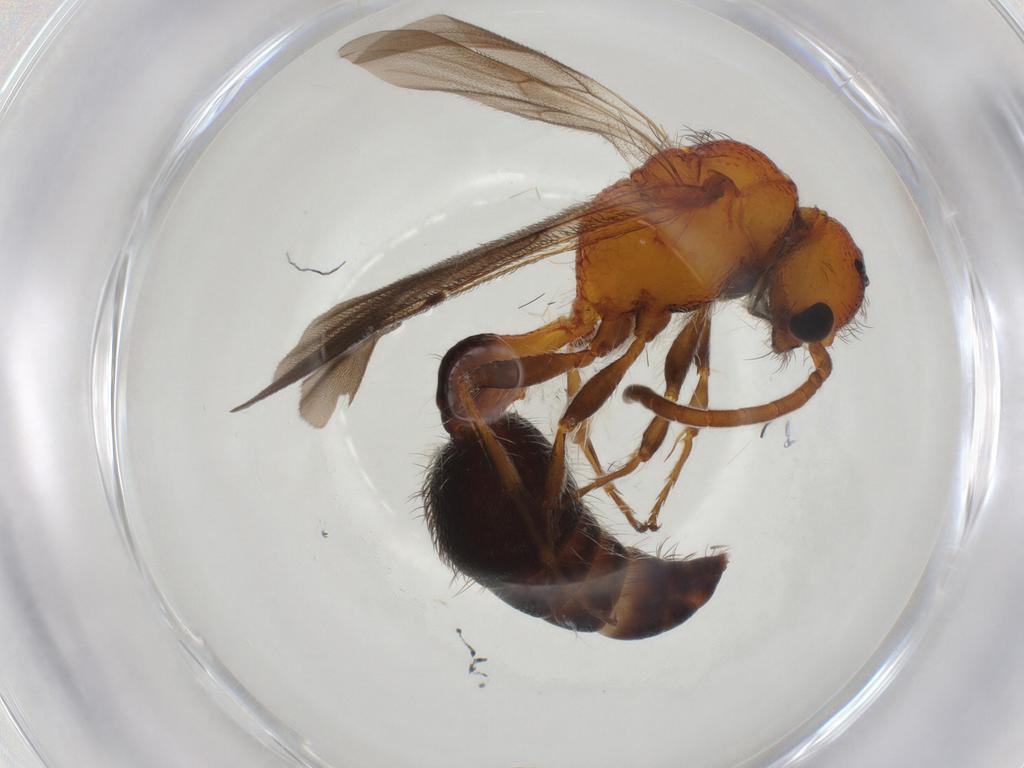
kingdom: Animalia
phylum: Arthropoda
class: Insecta
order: Hymenoptera
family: Mutillidae
